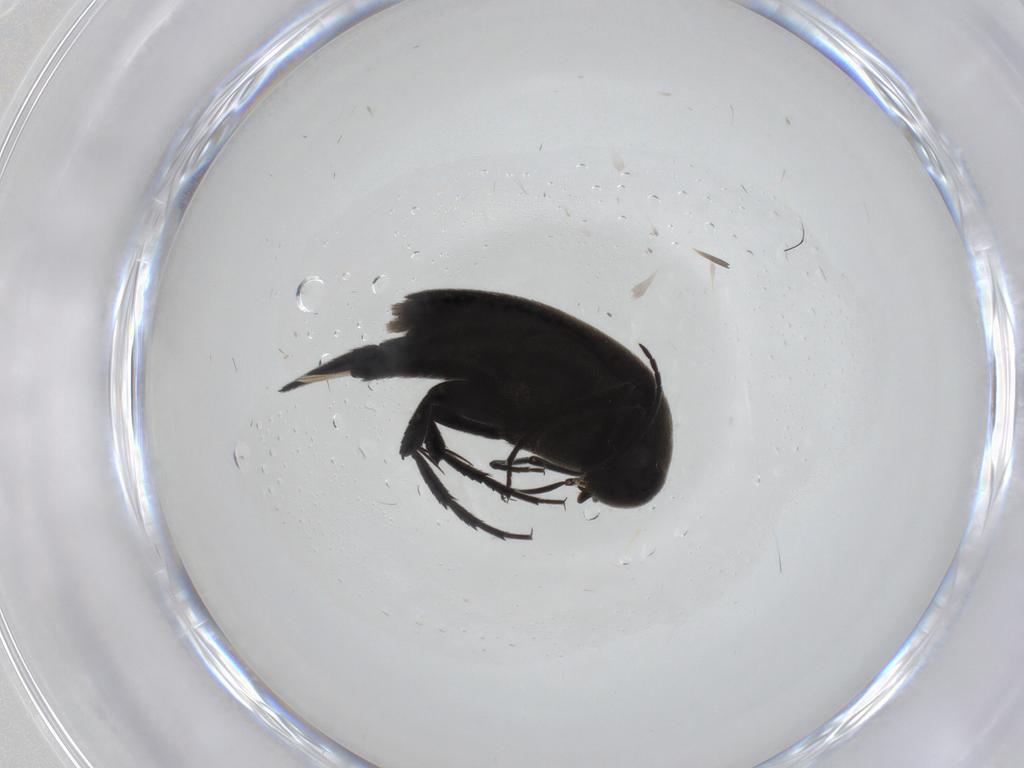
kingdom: Animalia
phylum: Arthropoda
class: Insecta
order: Coleoptera
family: Mordellidae
